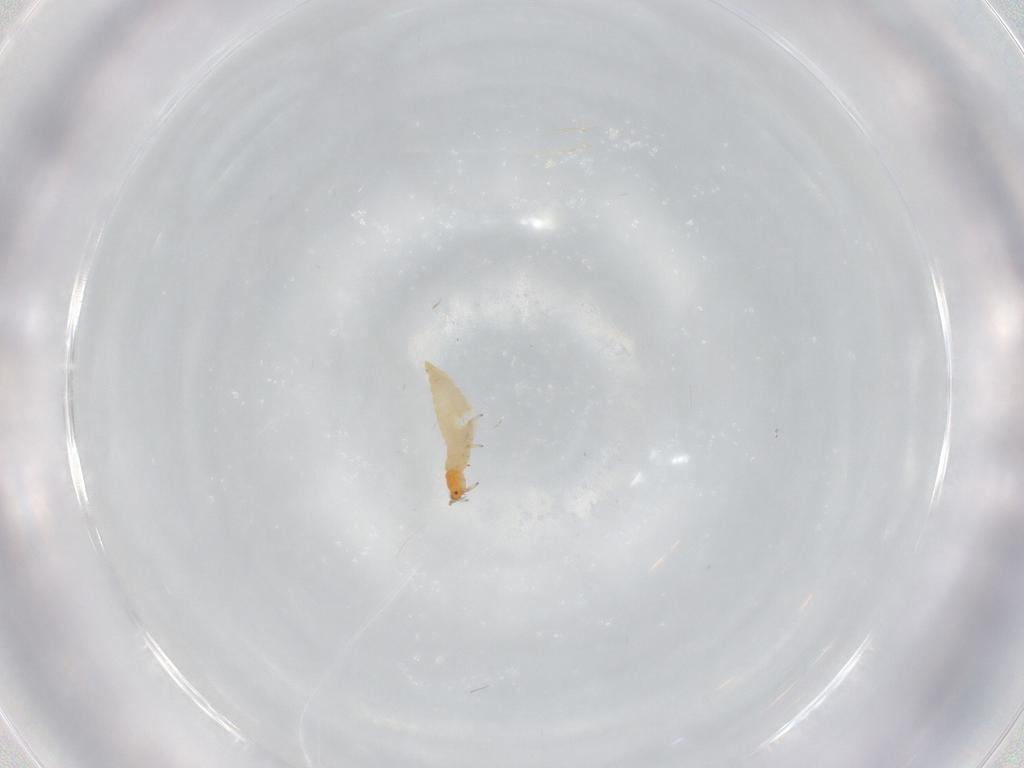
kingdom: Animalia
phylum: Arthropoda
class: Insecta
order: Thysanoptera
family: Aeolothripidae
